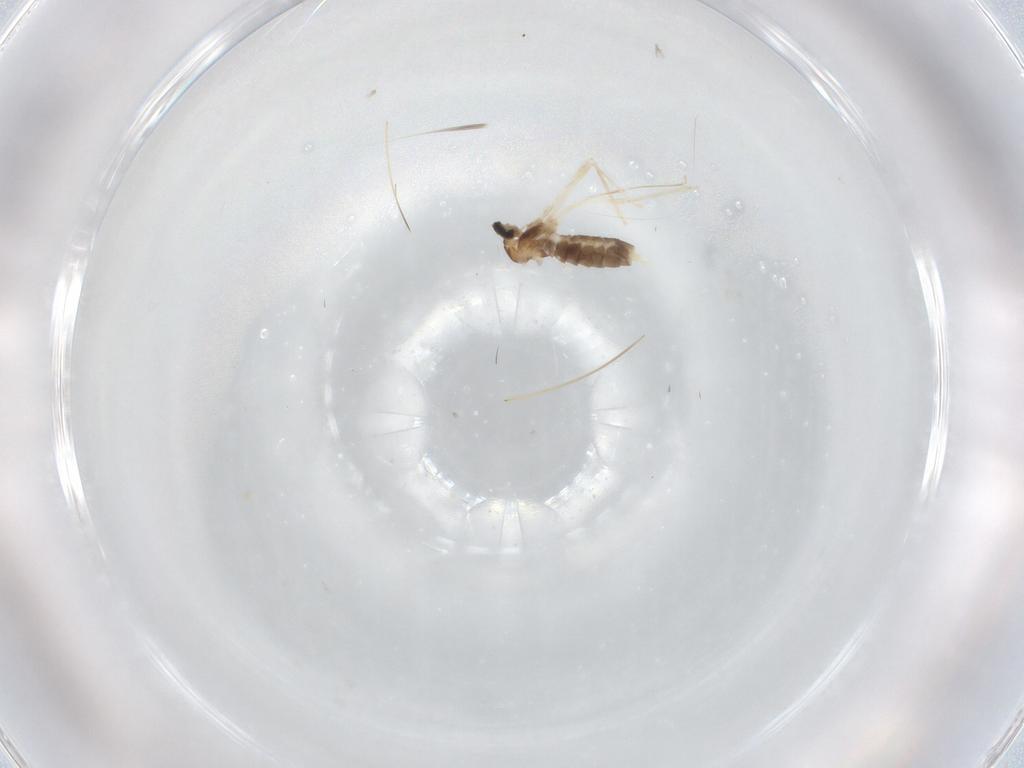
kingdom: Animalia
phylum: Arthropoda
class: Insecta
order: Diptera
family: Cecidomyiidae
